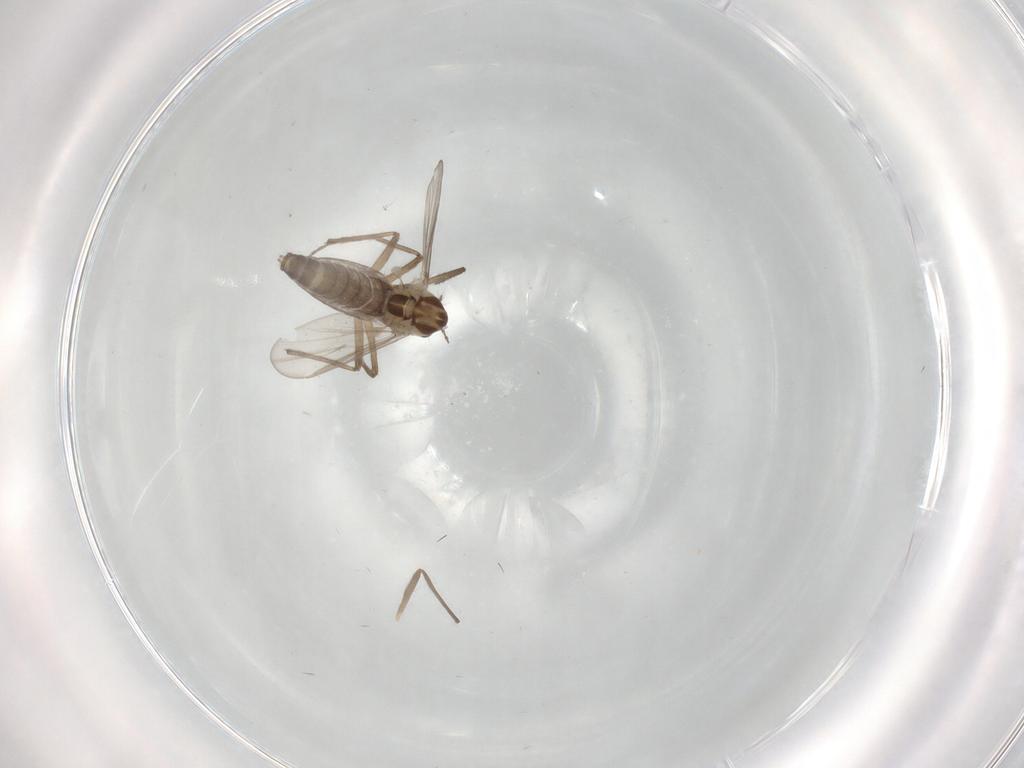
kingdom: Animalia
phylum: Arthropoda
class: Insecta
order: Diptera
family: Chironomidae
